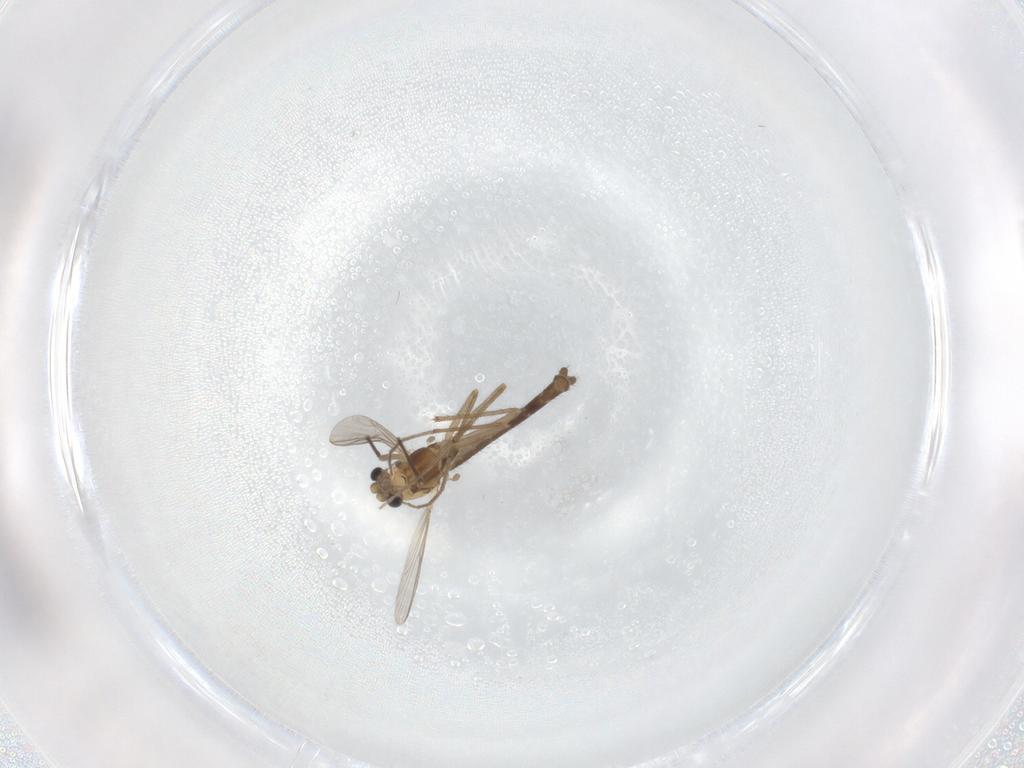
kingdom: Animalia
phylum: Arthropoda
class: Insecta
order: Diptera
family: Chironomidae
